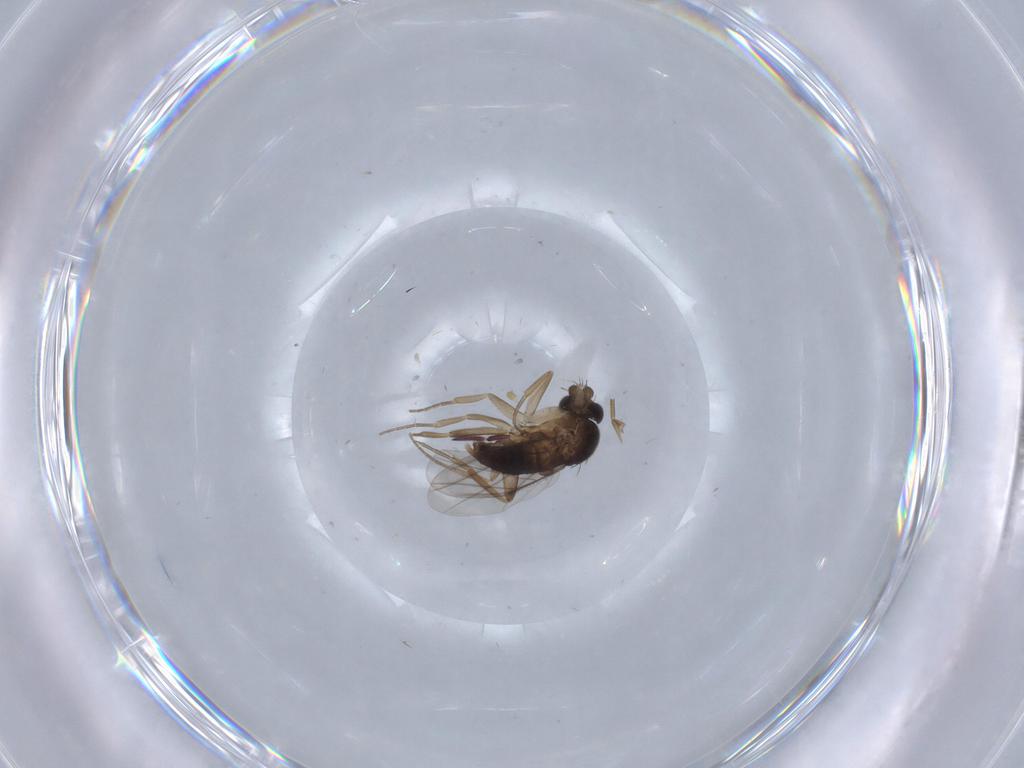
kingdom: Animalia
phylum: Arthropoda
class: Insecta
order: Diptera
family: Phoridae
